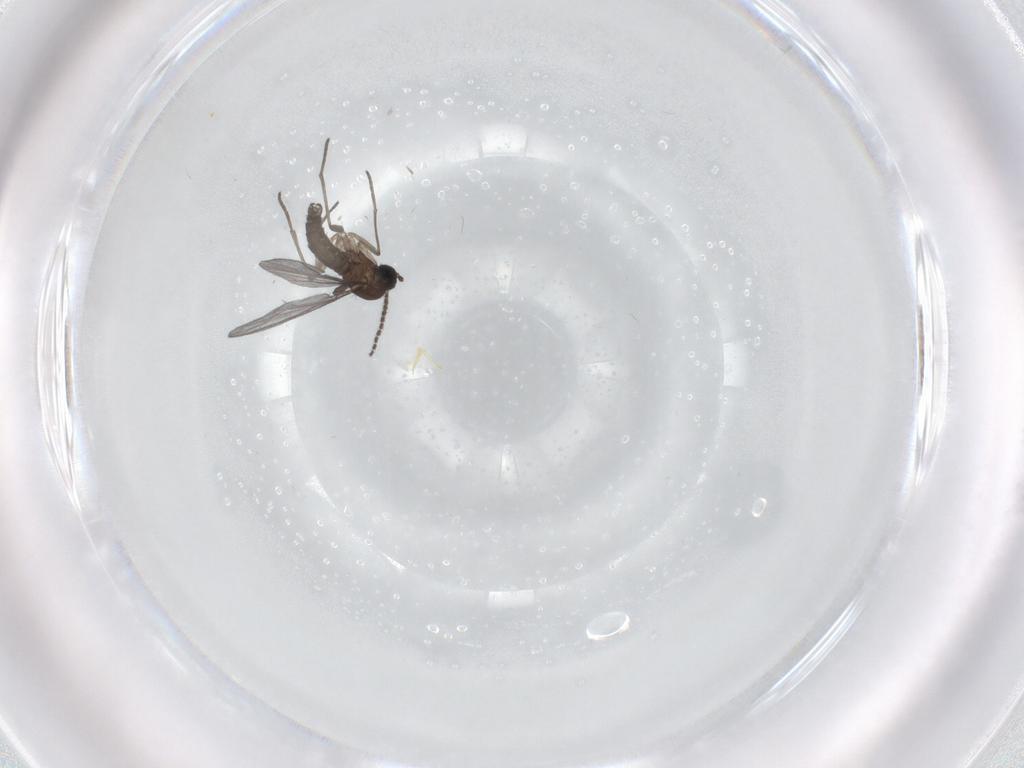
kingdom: Animalia
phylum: Arthropoda
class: Insecta
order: Diptera
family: Sciaridae
